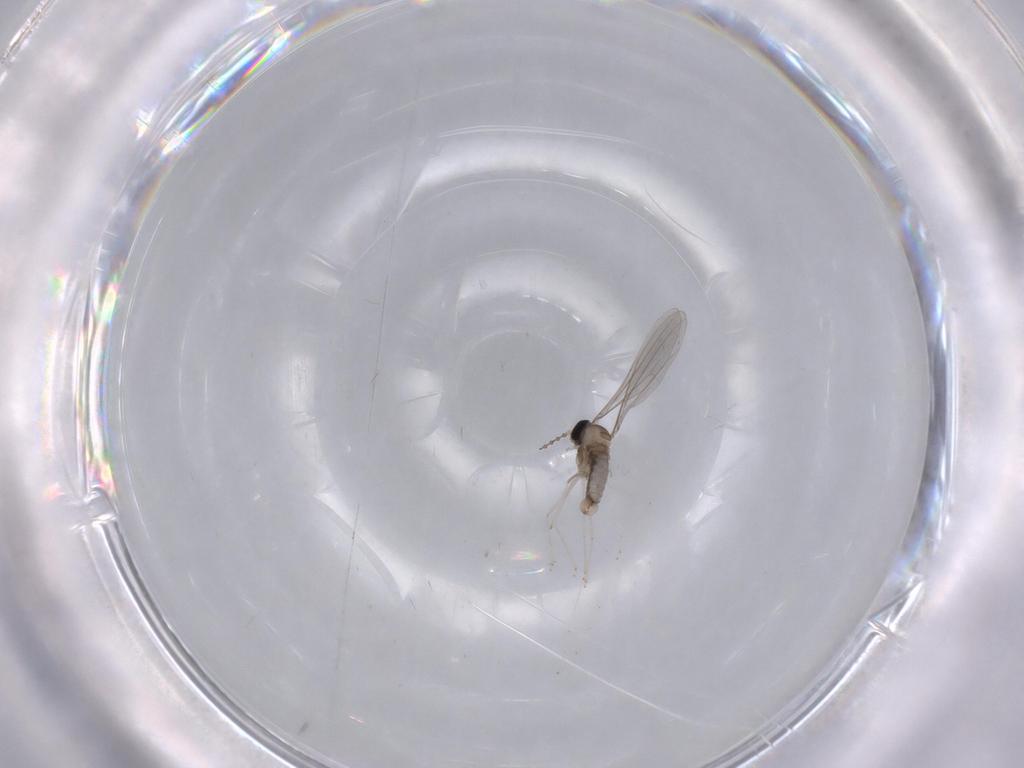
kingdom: Animalia
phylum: Arthropoda
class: Insecta
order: Diptera
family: Cecidomyiidae
